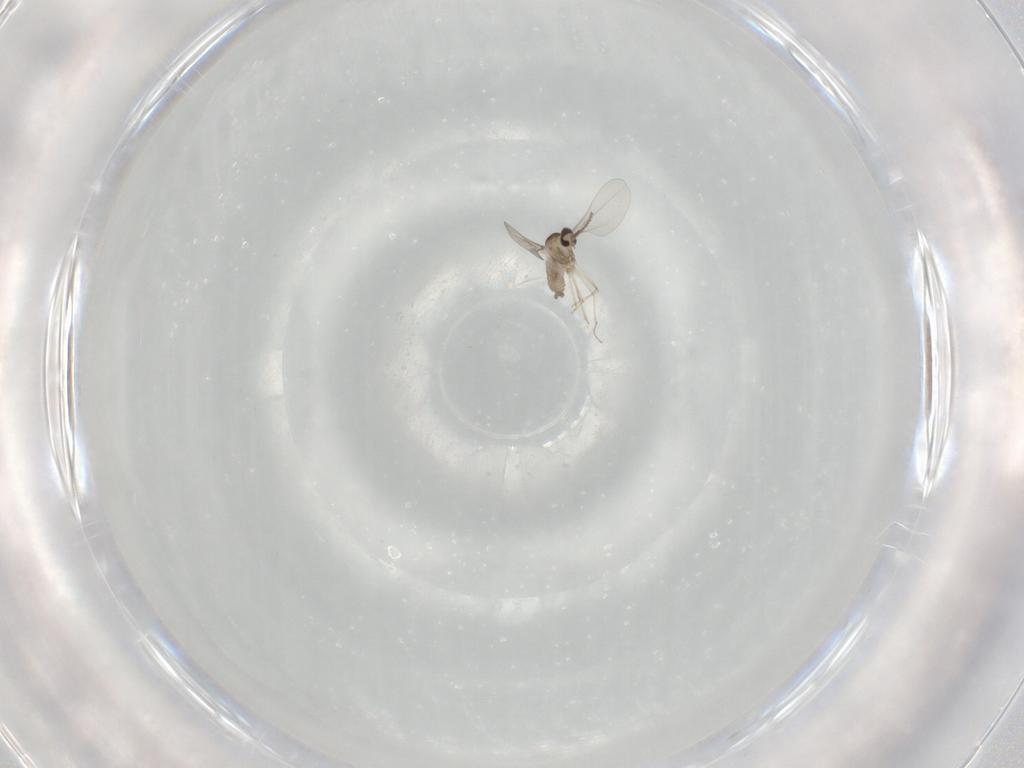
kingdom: Animalia
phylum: Arthropoda
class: Insecta
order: Diptera
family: Cecidomyiidae
